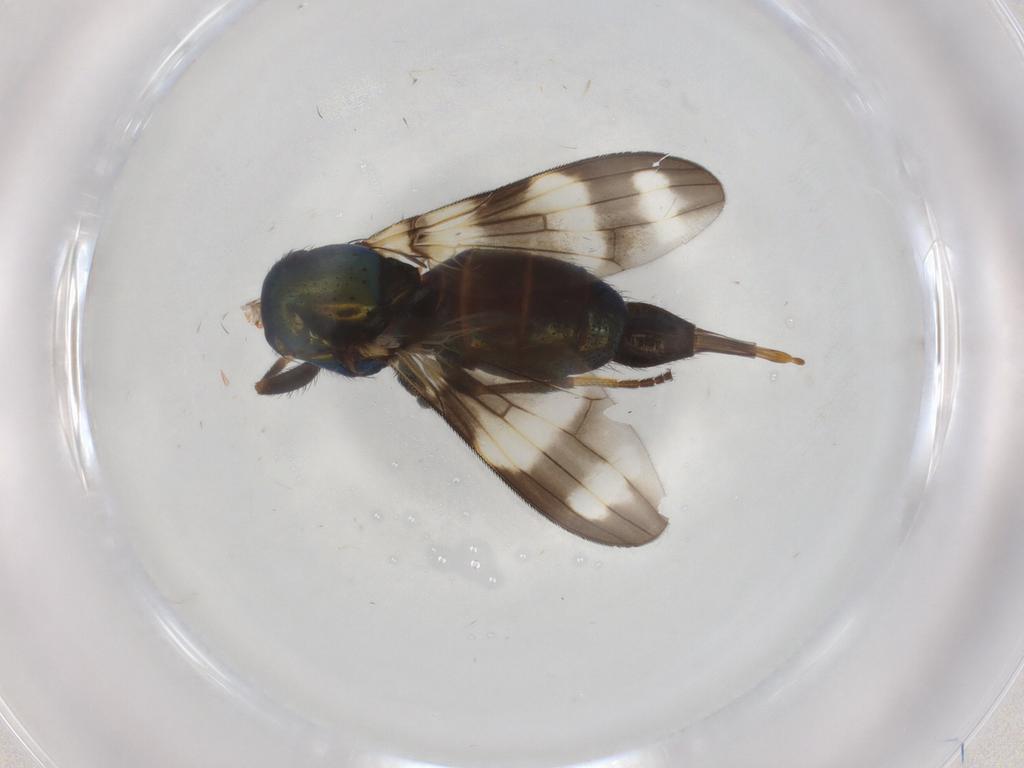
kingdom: Animalia
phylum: Arthropoda
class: Insecta
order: Diptera
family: Ulidiidae
